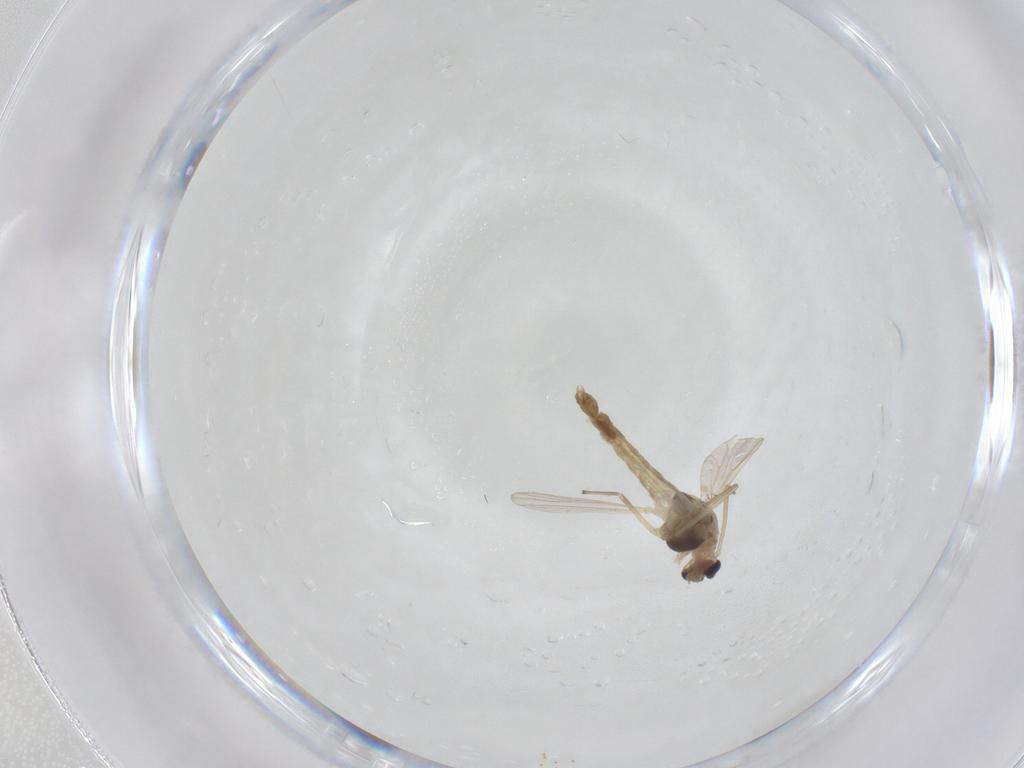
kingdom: Animalia
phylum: Arthropoda
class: Insecta
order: Diptera
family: Chironomidae
